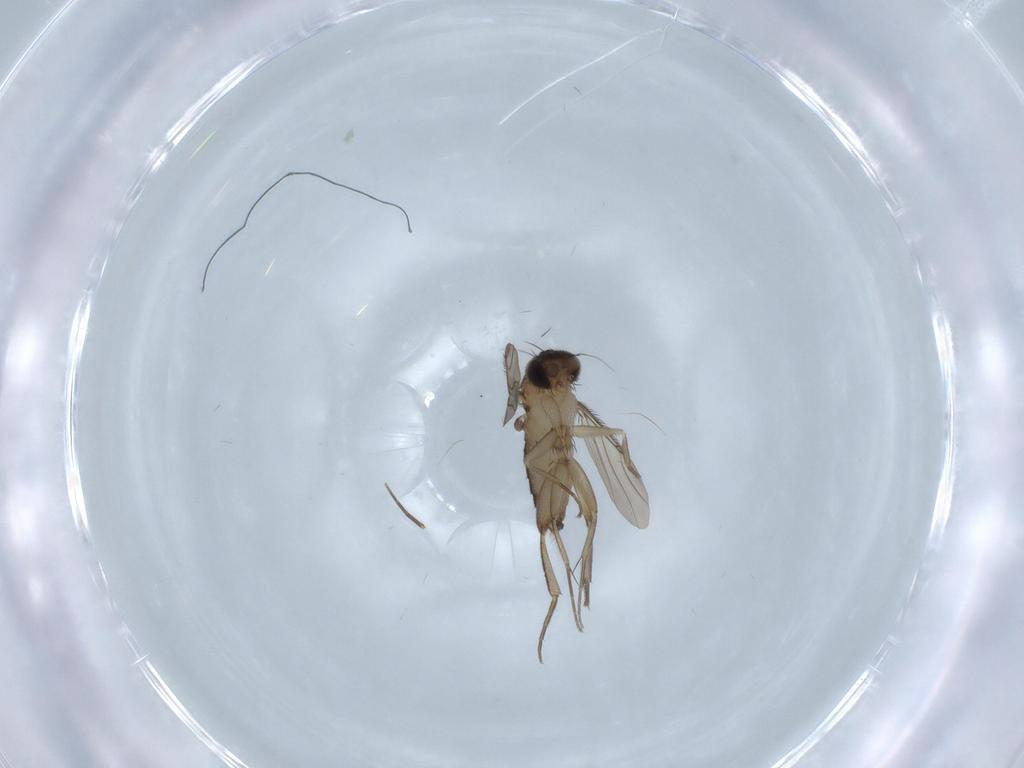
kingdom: Animalia
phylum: Arthropoda
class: Insecta
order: Diptera
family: Phoridae
